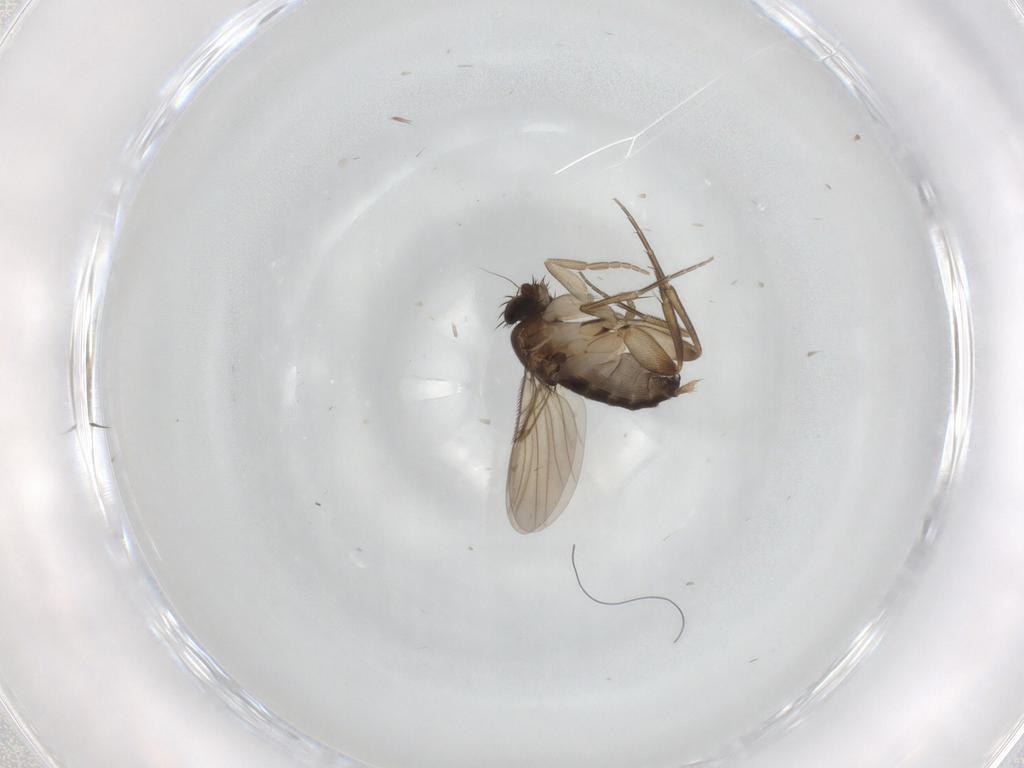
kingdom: Animalia
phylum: Arthropoda
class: Insecta
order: Diptera
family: Phoridae
